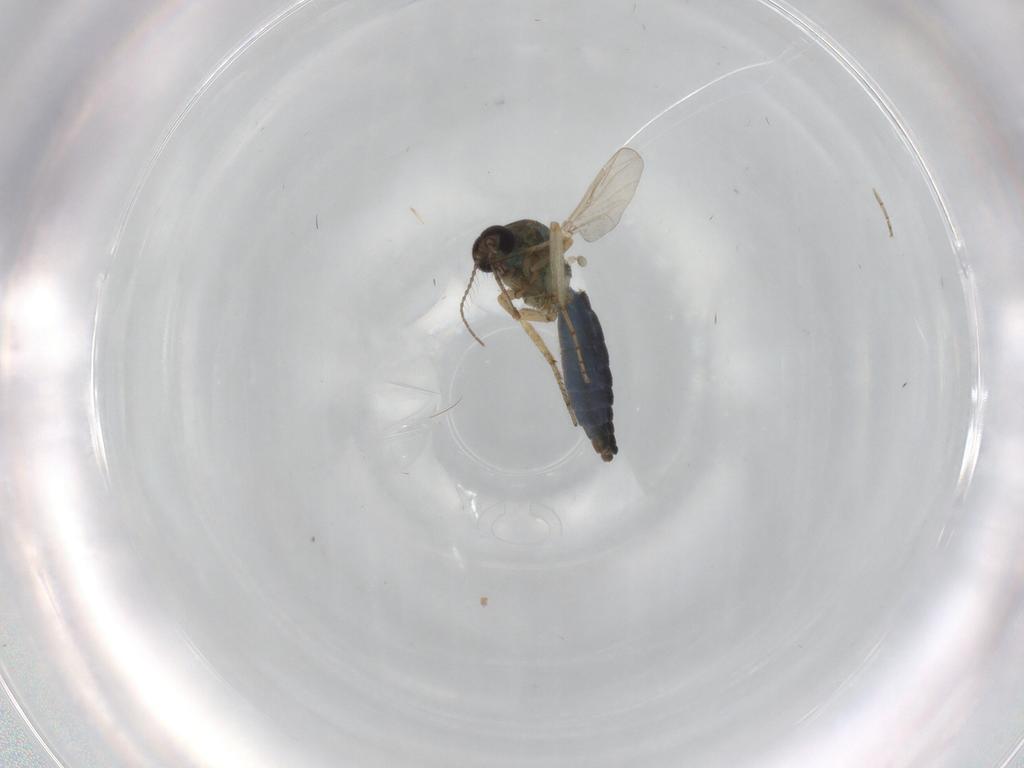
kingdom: Animalia
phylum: Arthropoda
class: Insecta
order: Diptera
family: Ceratopogonidae
